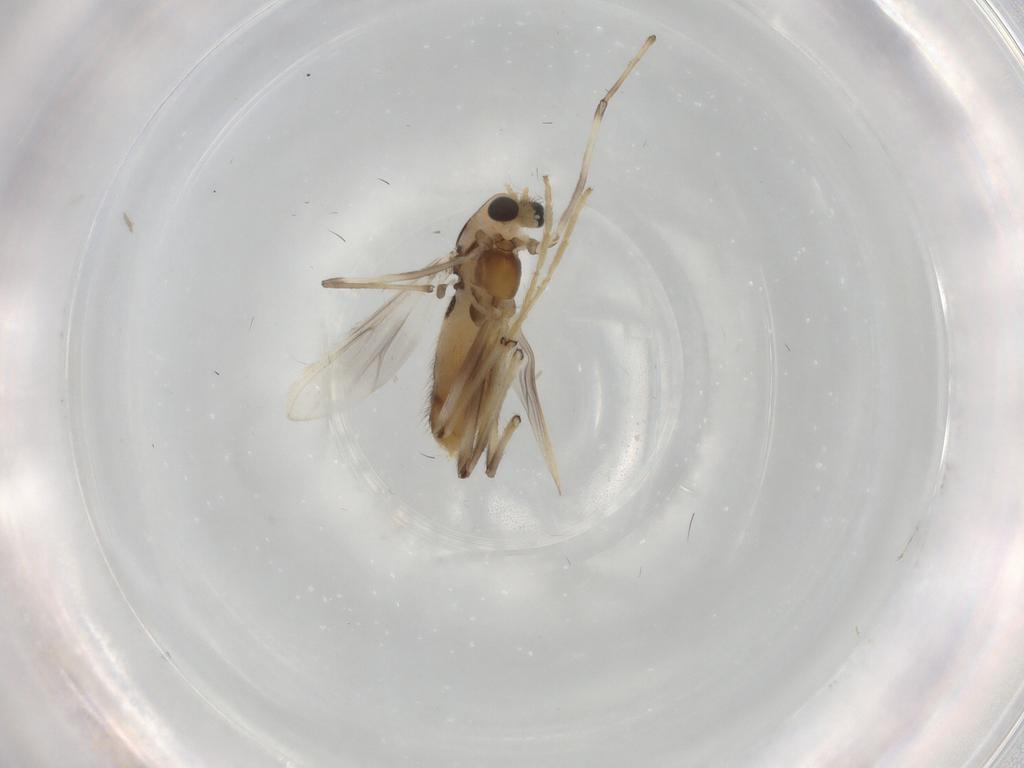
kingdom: Animalia
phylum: Arthropoda
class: Insecta
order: Diptera
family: Chironomidae
